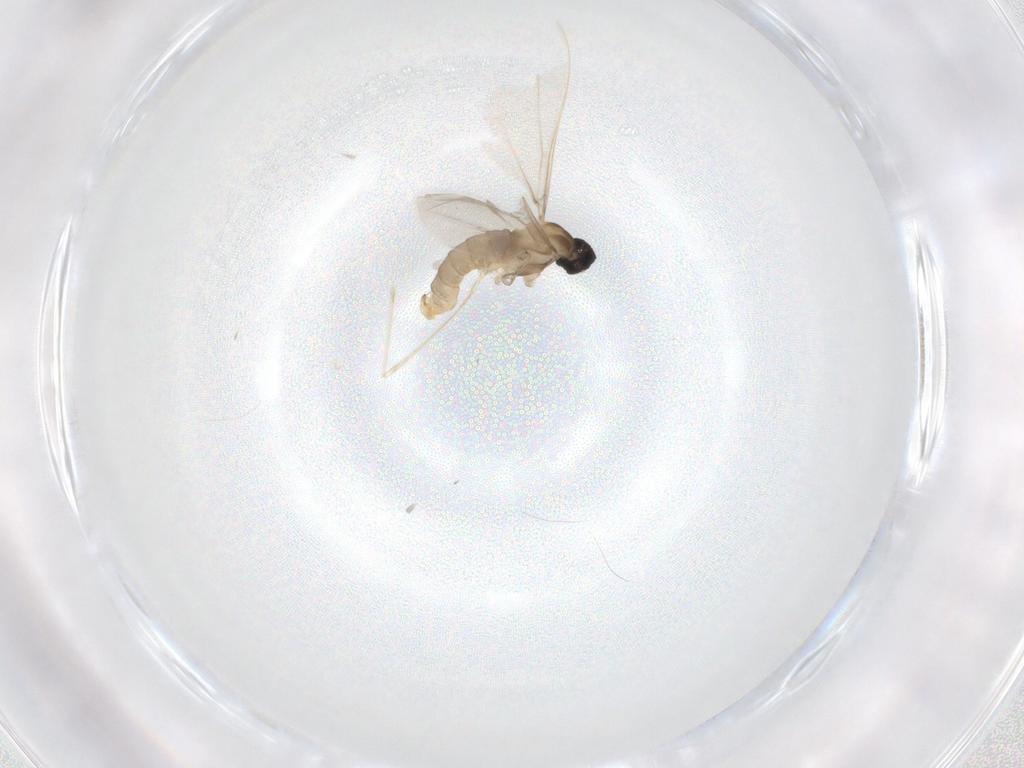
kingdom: Animalia
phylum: Arthropoda
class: Insecta
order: Diptera
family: Cecidomyiidae
